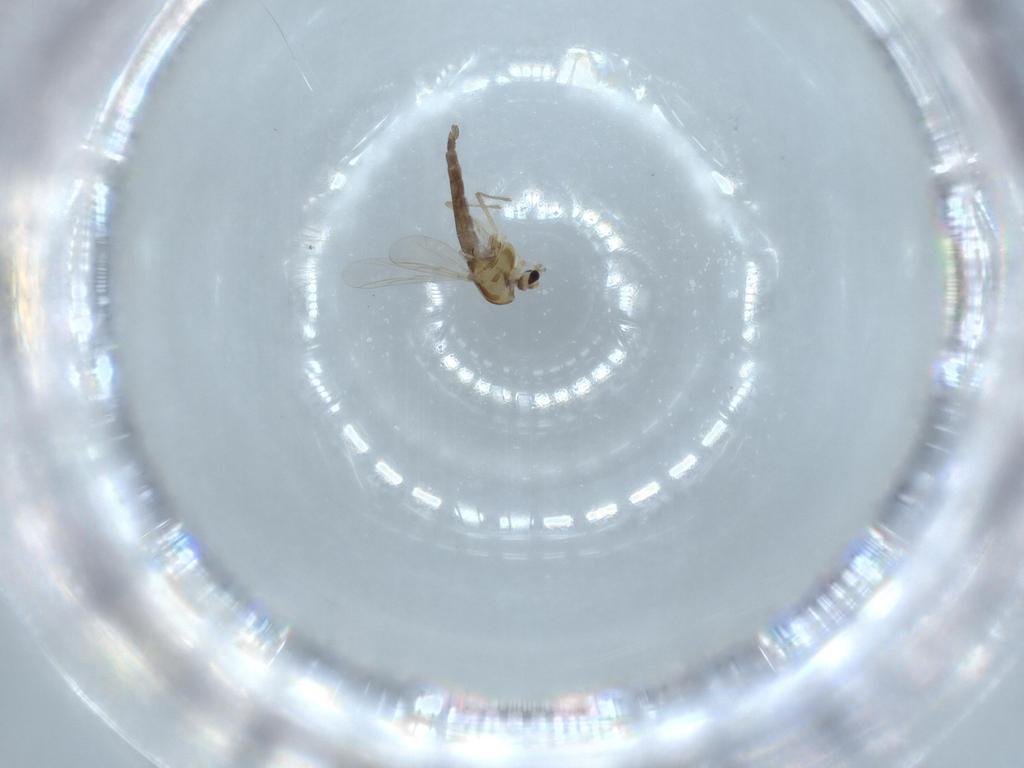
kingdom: Animalia
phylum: Arthropoda
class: Insecta
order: Diptera
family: Chironomidae
